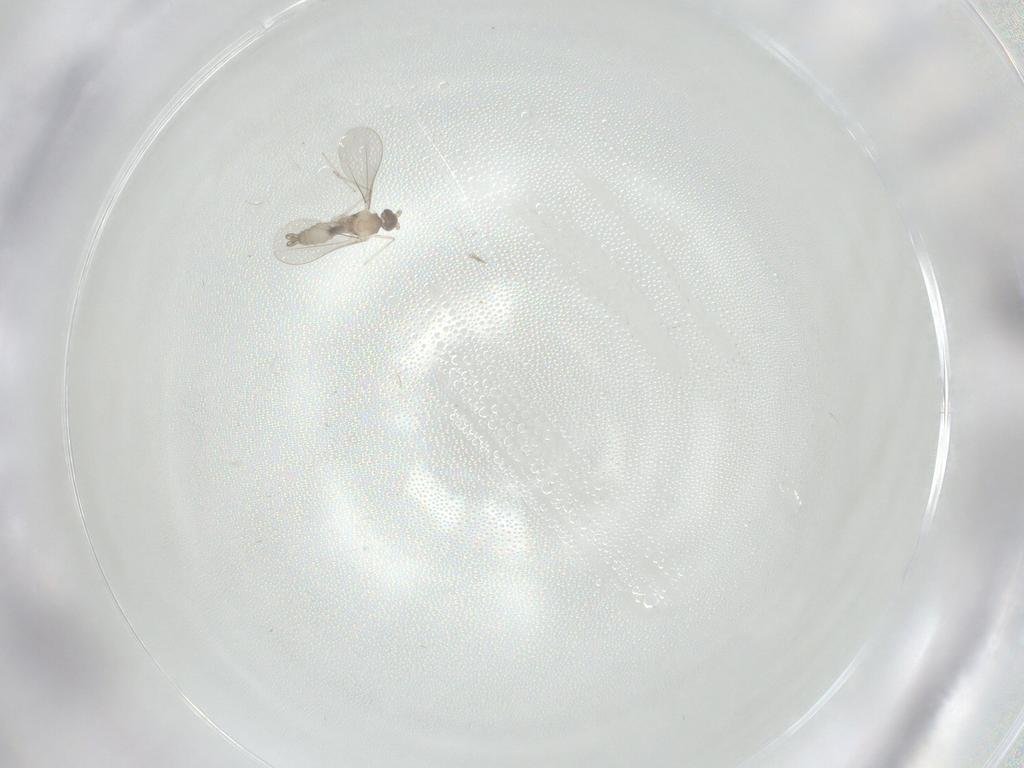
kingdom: Animalia
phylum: Arthropoda
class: Insecta
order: Diptera
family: Cecidomyiidae
